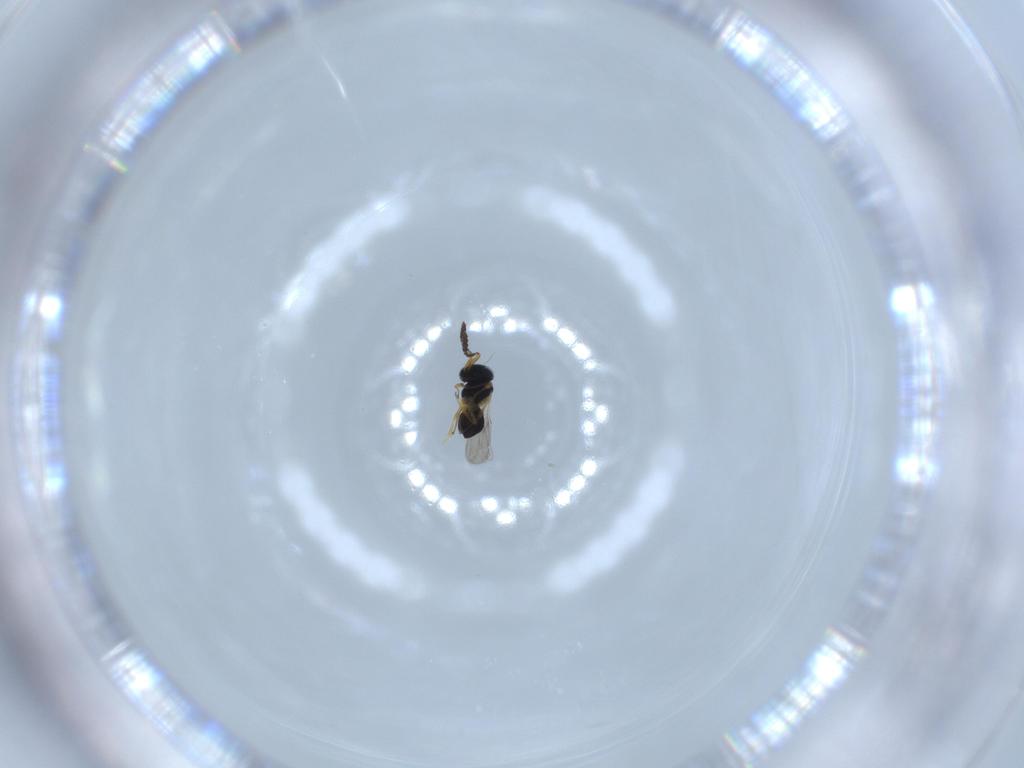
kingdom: Animalia
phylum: Arthropoda
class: Insecta
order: Hymenoptera
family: Scelionidae
